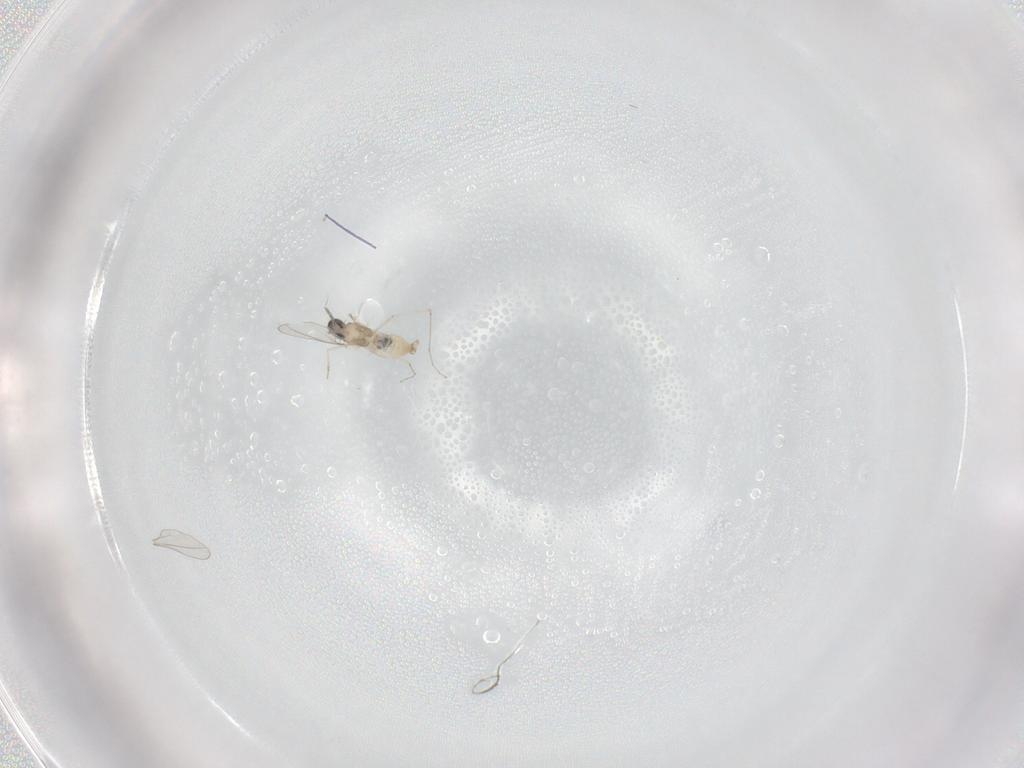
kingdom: Animalia
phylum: Arthropoda
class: Insecta
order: Diptera
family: Cecidomyiidae
